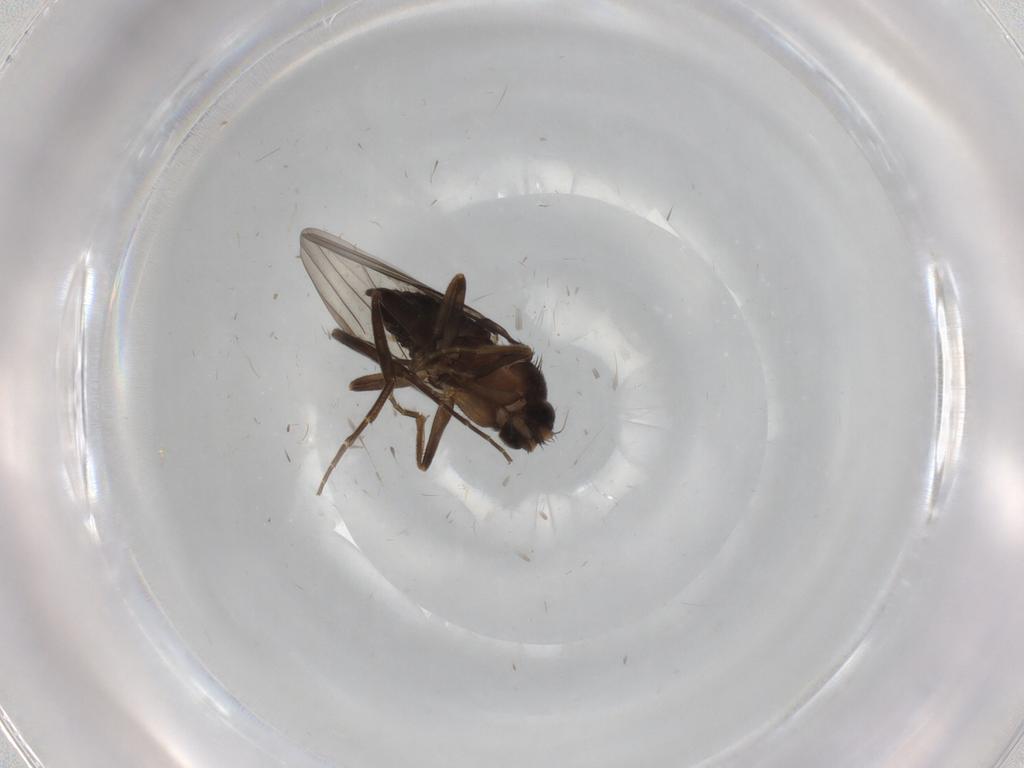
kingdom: Animalia
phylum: Arthropoda
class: Insecta
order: Diptera
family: Cecidomyiidae
